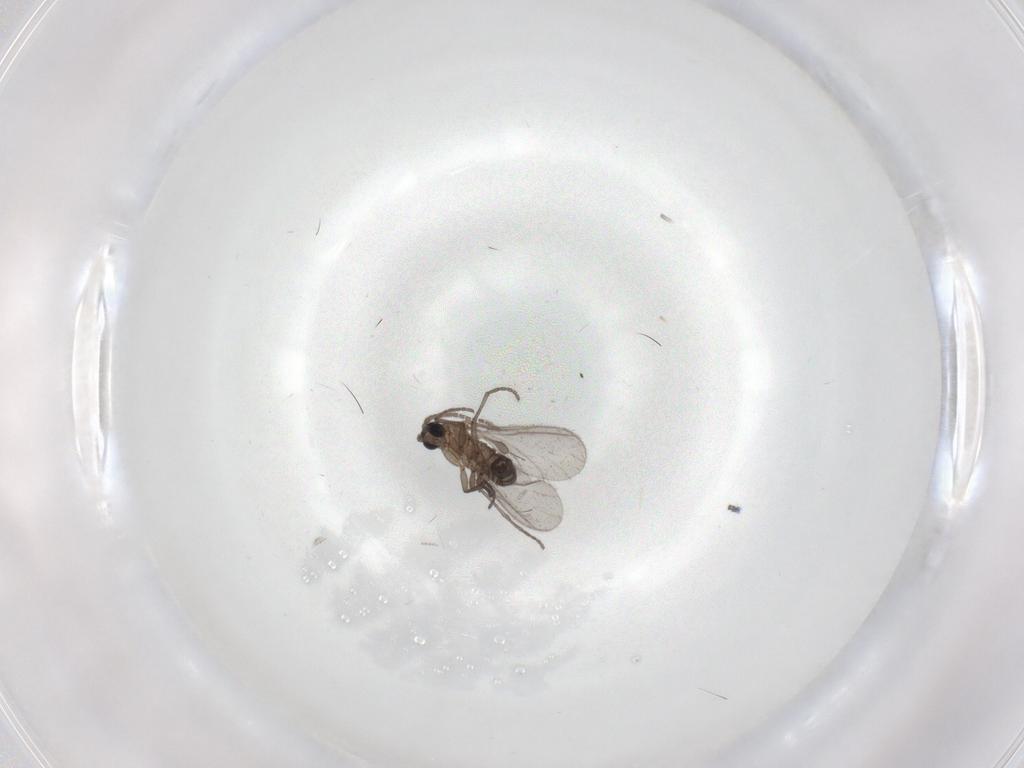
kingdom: Animalia
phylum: Arthropoda
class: Insecta
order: Diptera
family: Sciaridae
